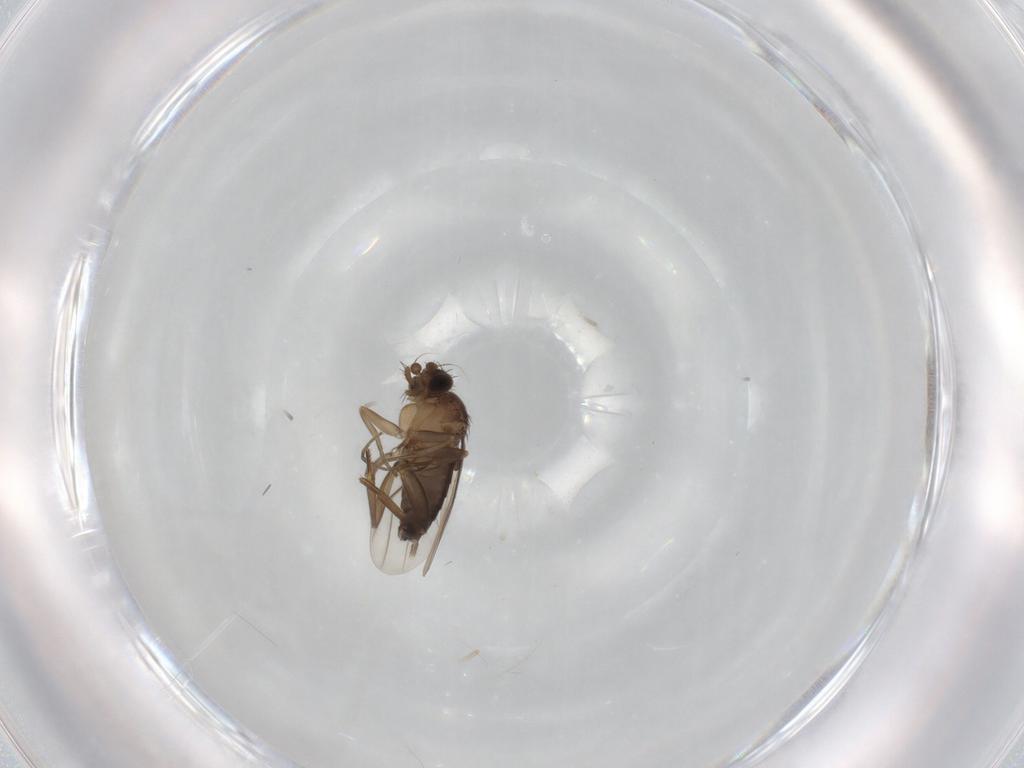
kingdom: Animalia
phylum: Arthropoda
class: Insecta
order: Diptera
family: Phoridae
